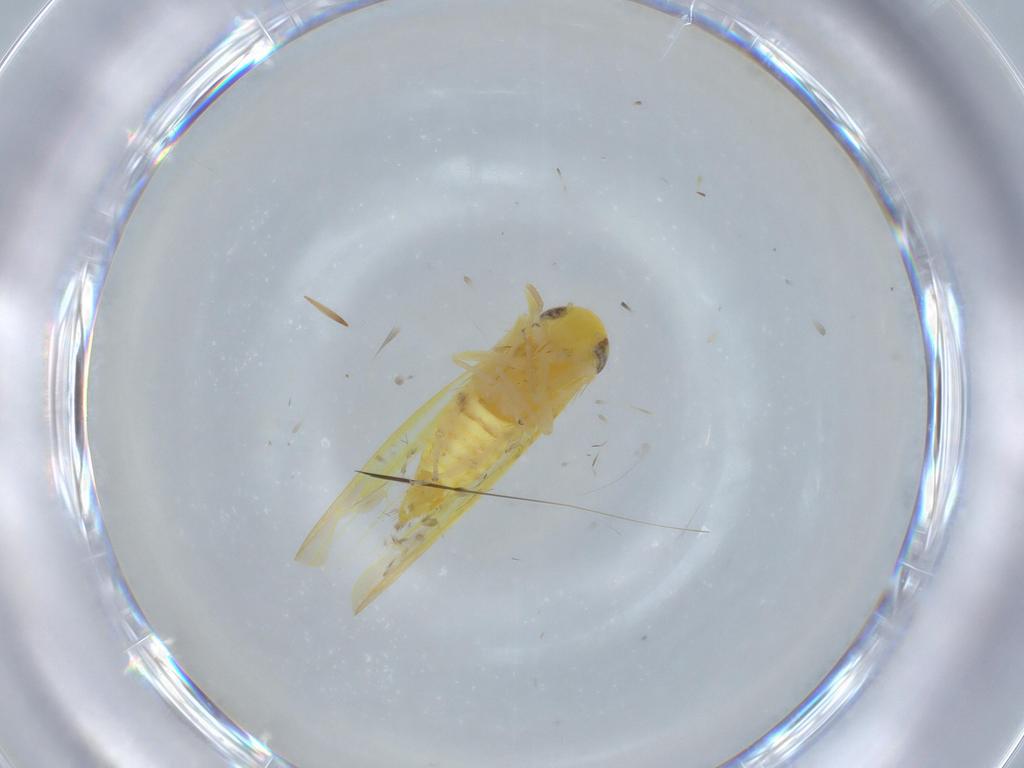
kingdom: Animalia
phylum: Arthropoda
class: Insecta
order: Hemiptera
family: Cicadellidae
